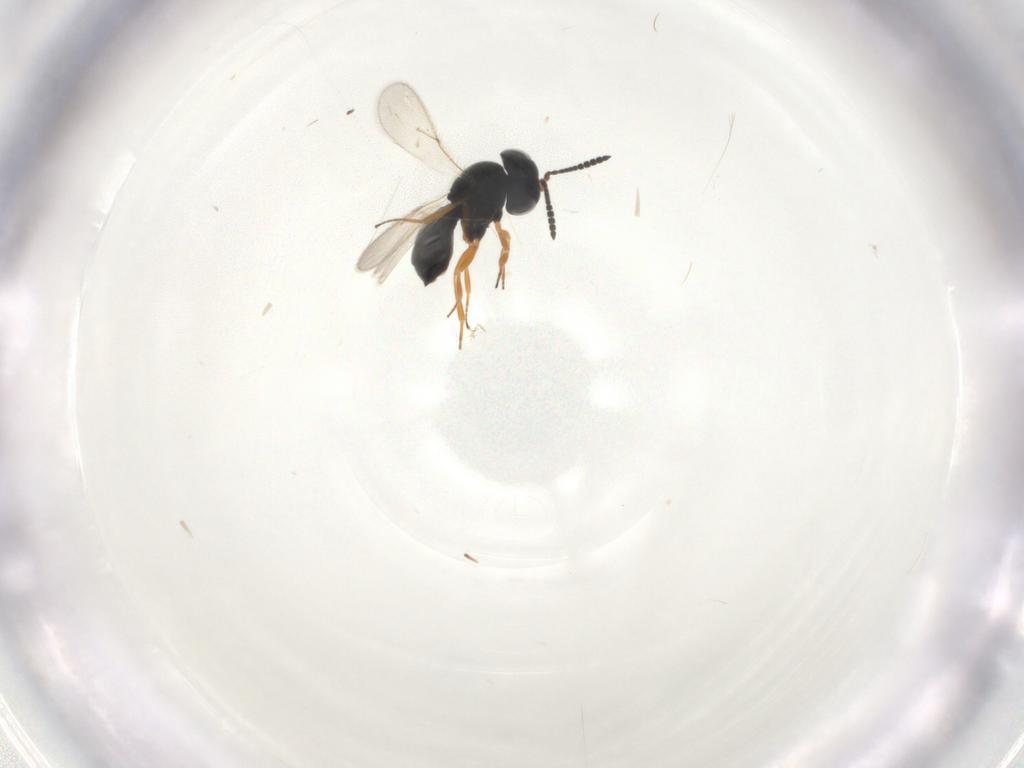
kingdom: Animalia
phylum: Arthropoda
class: Insecta
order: Hymenoptera
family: Scelionidae
